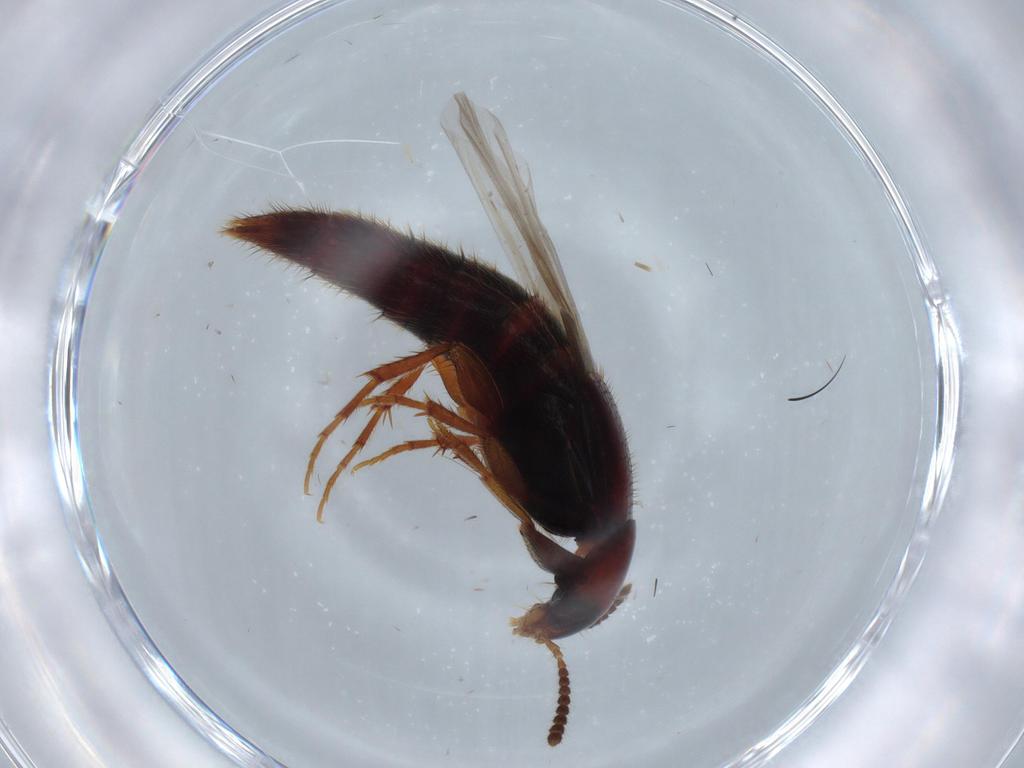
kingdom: Animalia
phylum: Arthropoda
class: Insecta
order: Coleoptera
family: Staphylinidae
